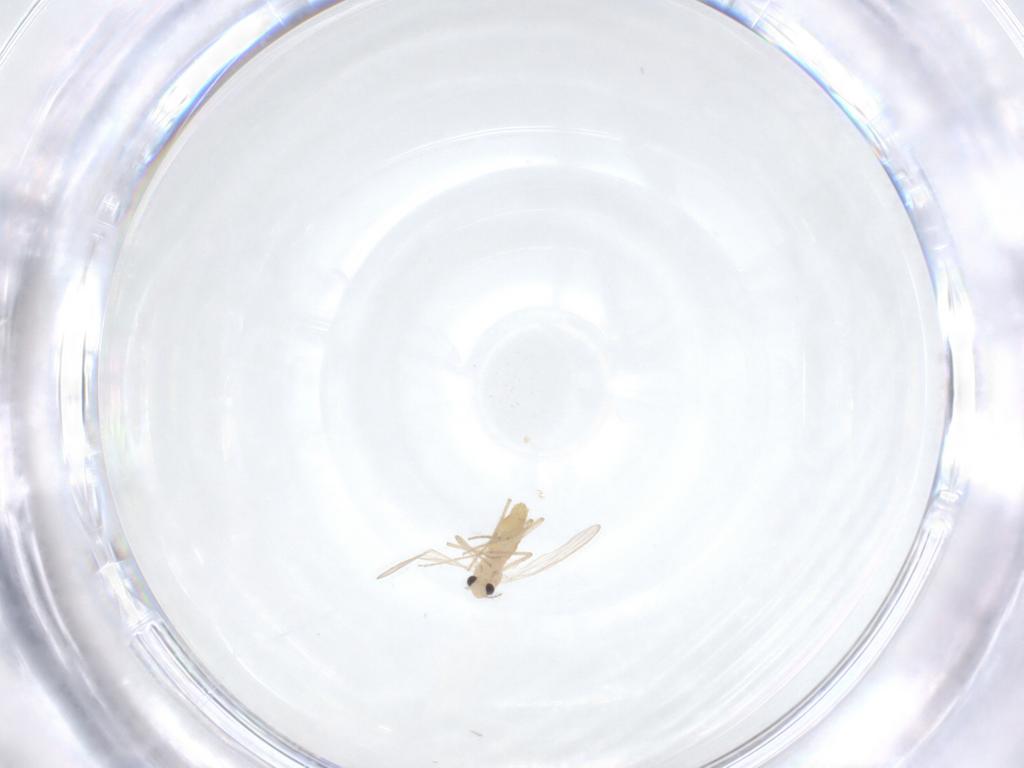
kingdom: Animalia
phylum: Arthropoda
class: Insecta
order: Diptera
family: Chironomidae
